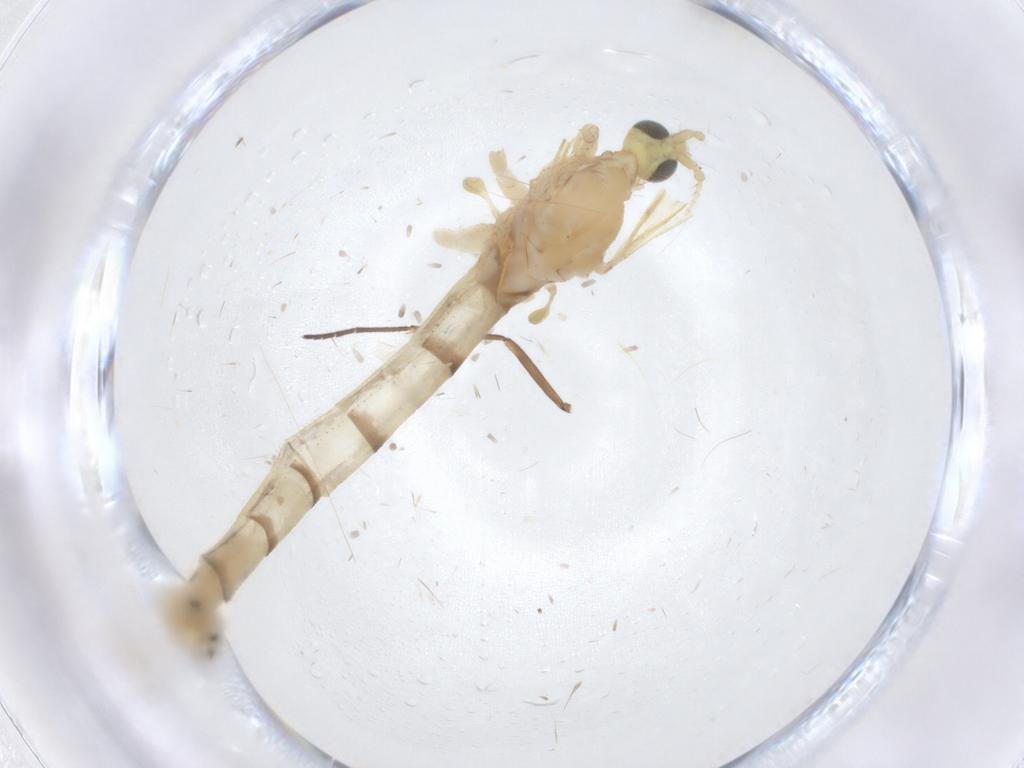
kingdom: Animalia
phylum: Arthropoda
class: Insecta
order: Diptera
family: Limoniidae
